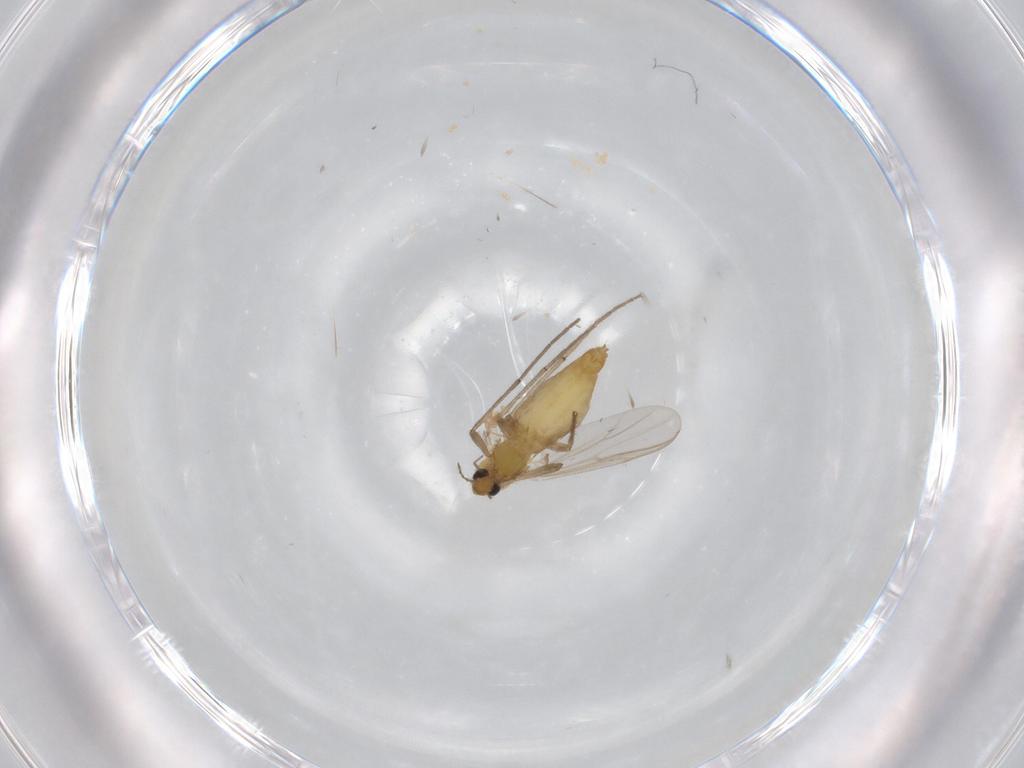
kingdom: Animalia
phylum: Arthropoda
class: Insecta
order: Diptera
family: Chironomidae
